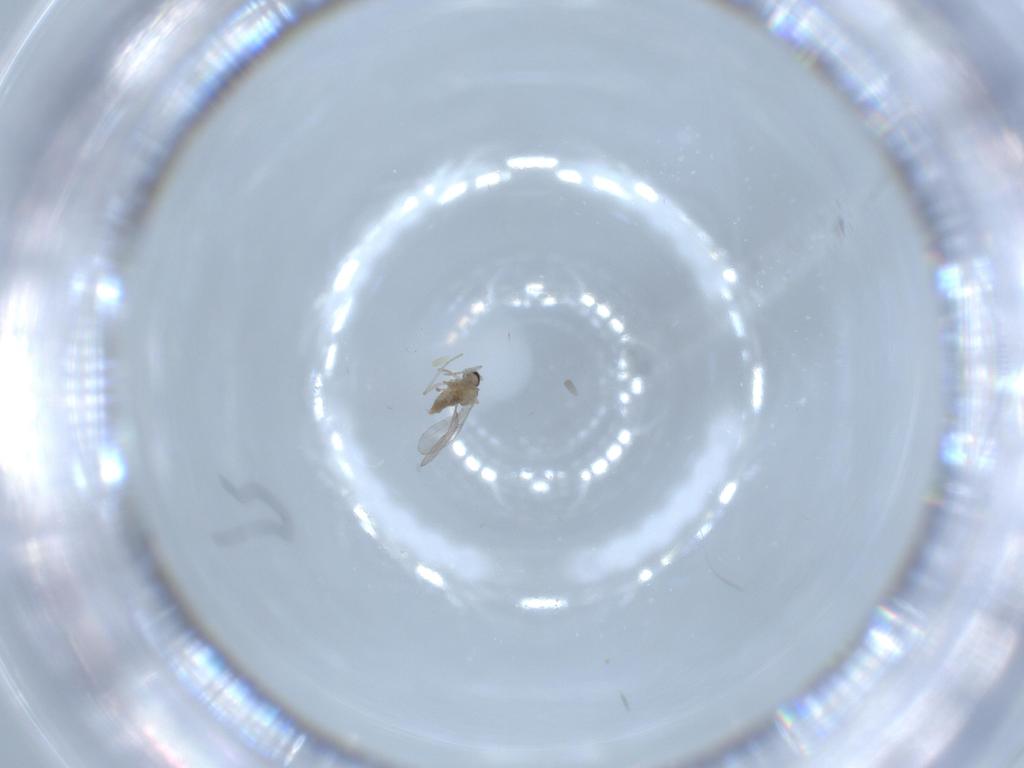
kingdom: Animalia
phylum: Arthropoda
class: Insecta
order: Diptera
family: Cecidomyiidae
